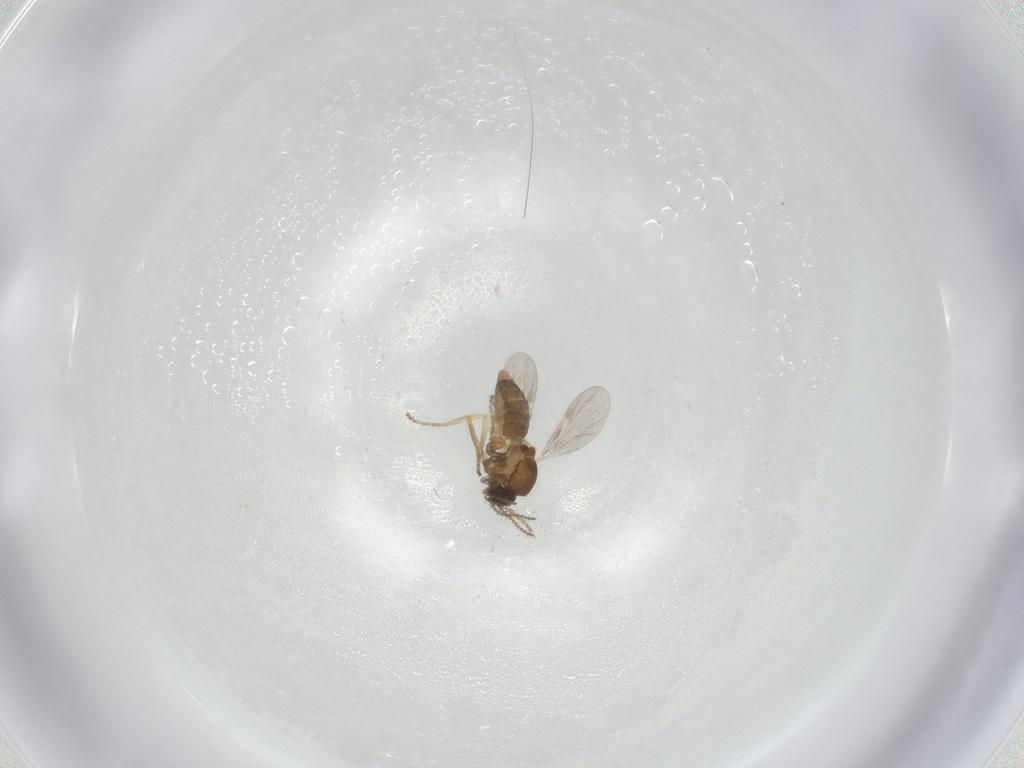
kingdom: Animalia
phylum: Arthropoda
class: Insecta
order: Diptera
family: Ceratopogonidae
